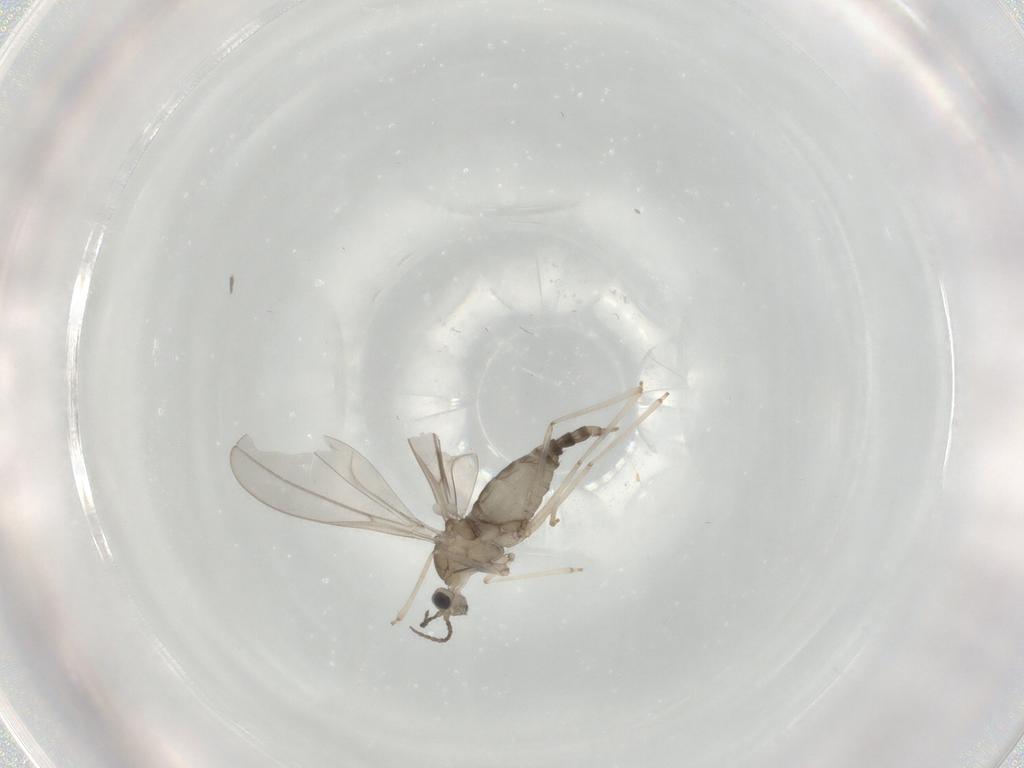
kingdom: Animalia
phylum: Arthropoda
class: Insecta
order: Diptera
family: Cecidomyiidae
